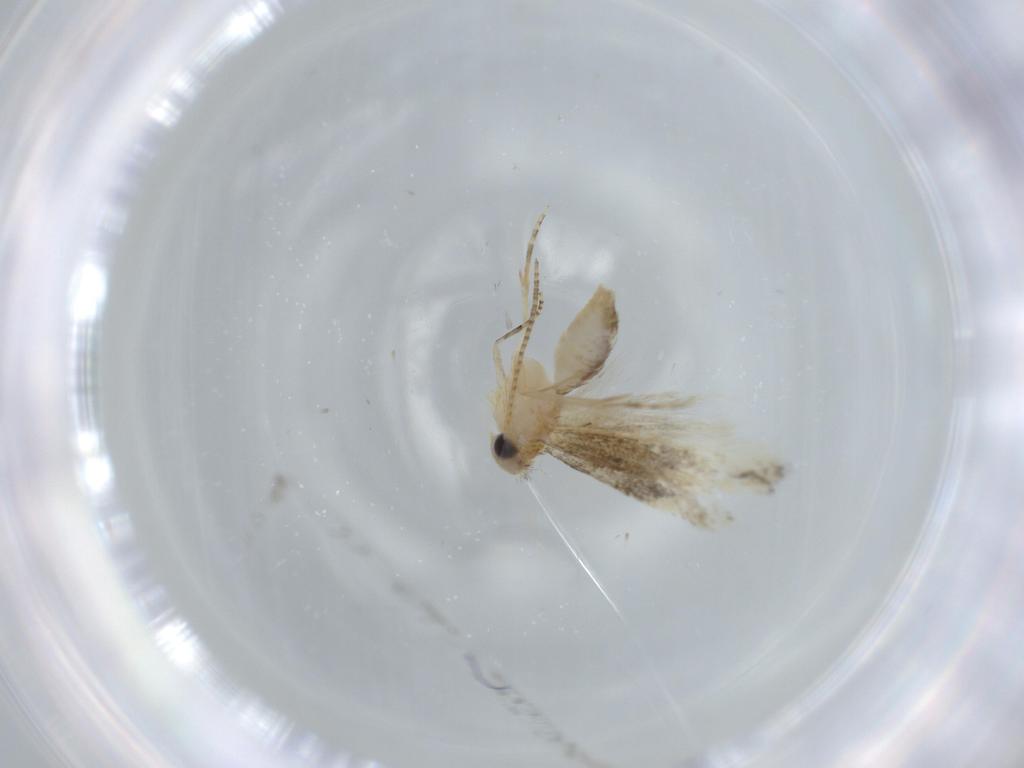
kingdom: Animalia
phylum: Arthropoda
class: Insecta
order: Lepidoptera
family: Bucculatricidae
